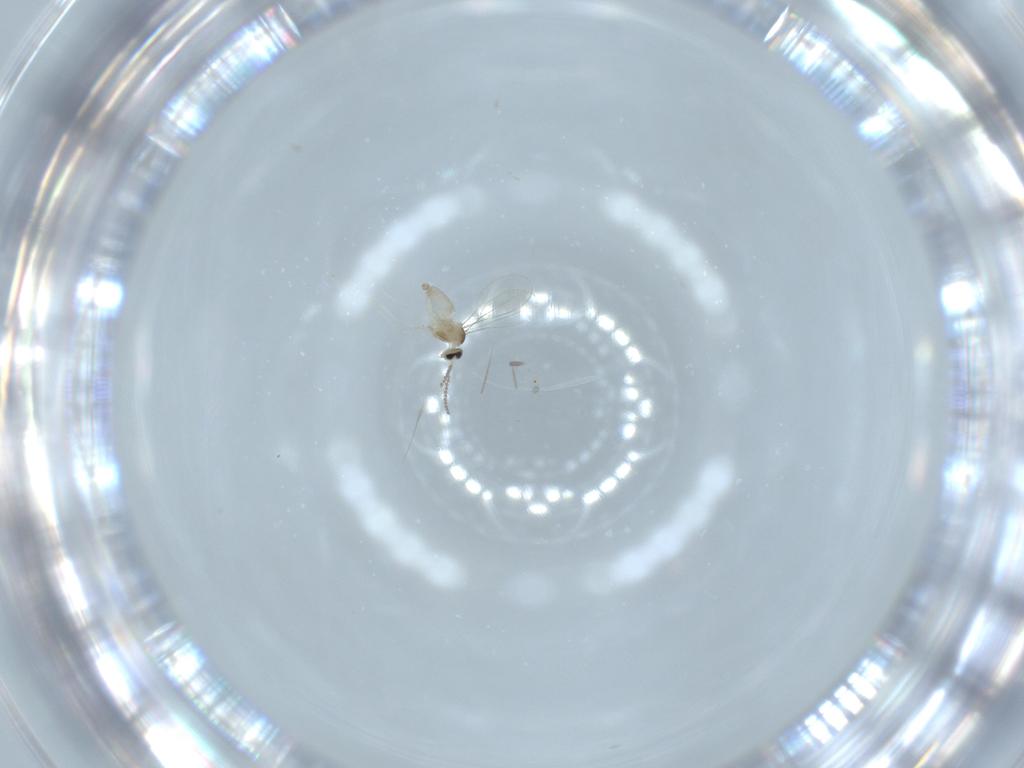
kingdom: Animalia
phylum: Arthropoda
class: Insecta
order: Diptera
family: Cecidomyiidae
